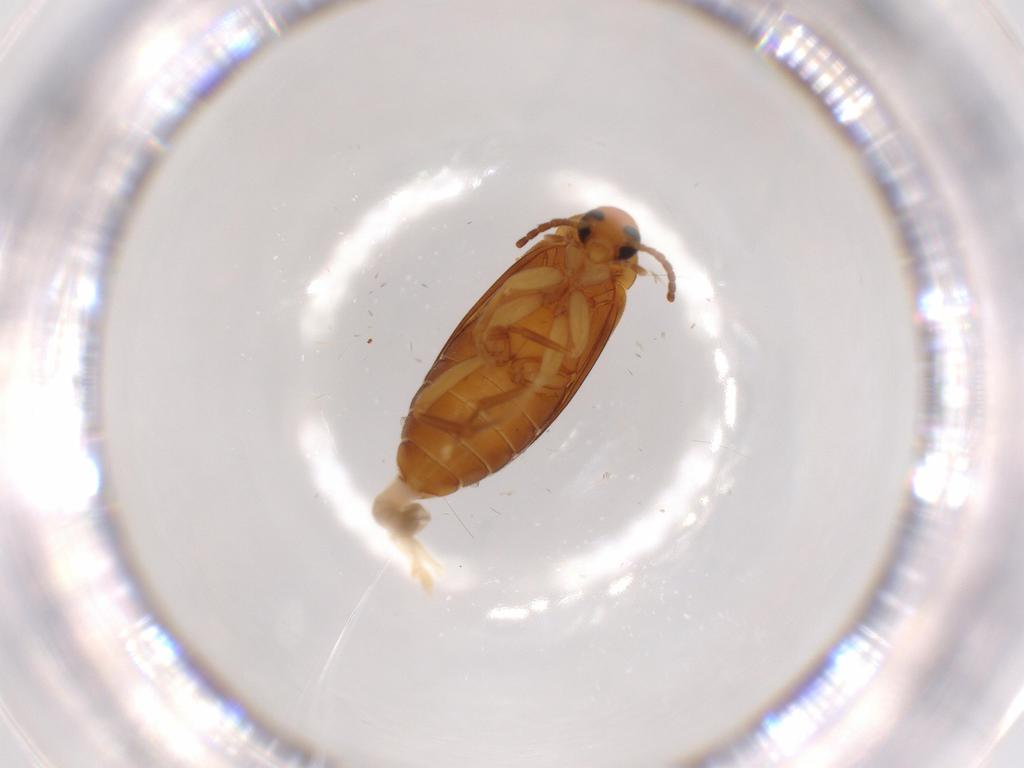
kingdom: Animalia
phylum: Arthropoda
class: Insecta
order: Coleoptera
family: Scraptiidae
